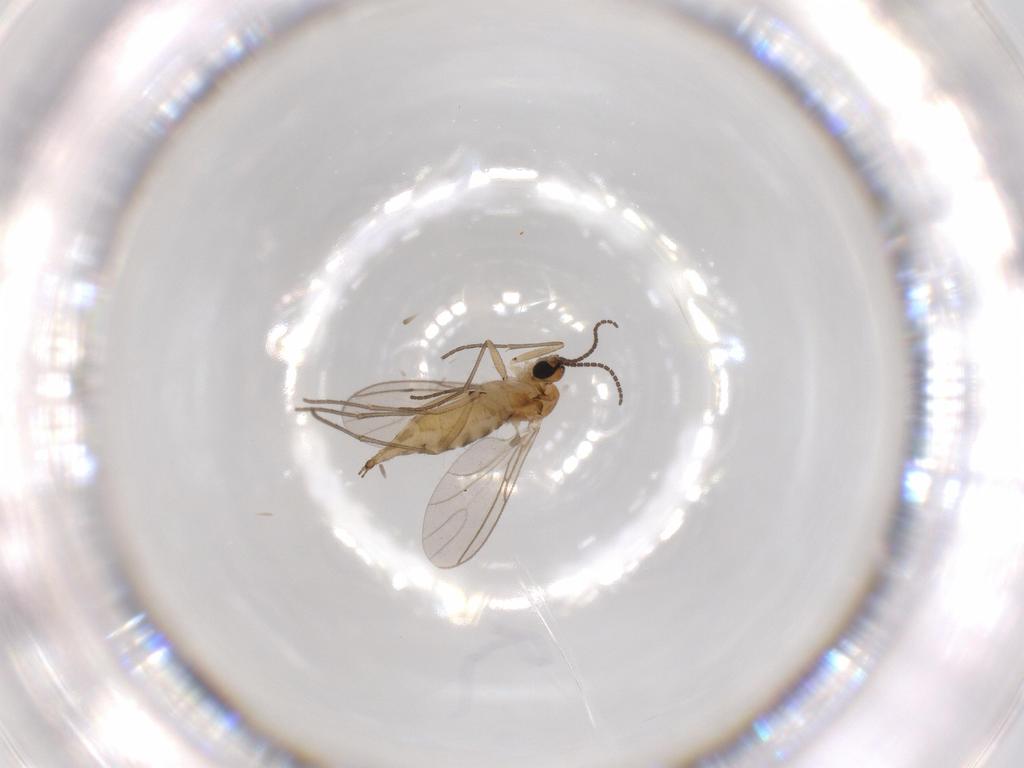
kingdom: Animalia
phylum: Arthropoda
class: Insecta
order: Diptera
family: Sciaridae
